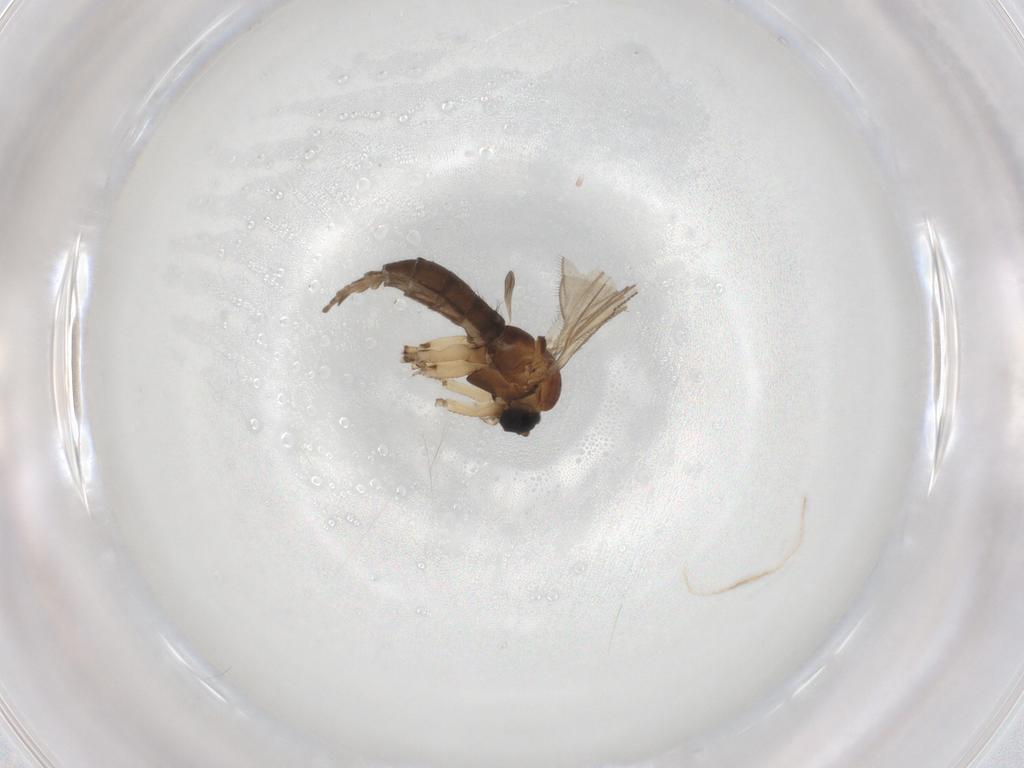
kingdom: Animalia
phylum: Arthropoda
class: Insecta
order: Diptera
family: Sciaridae
